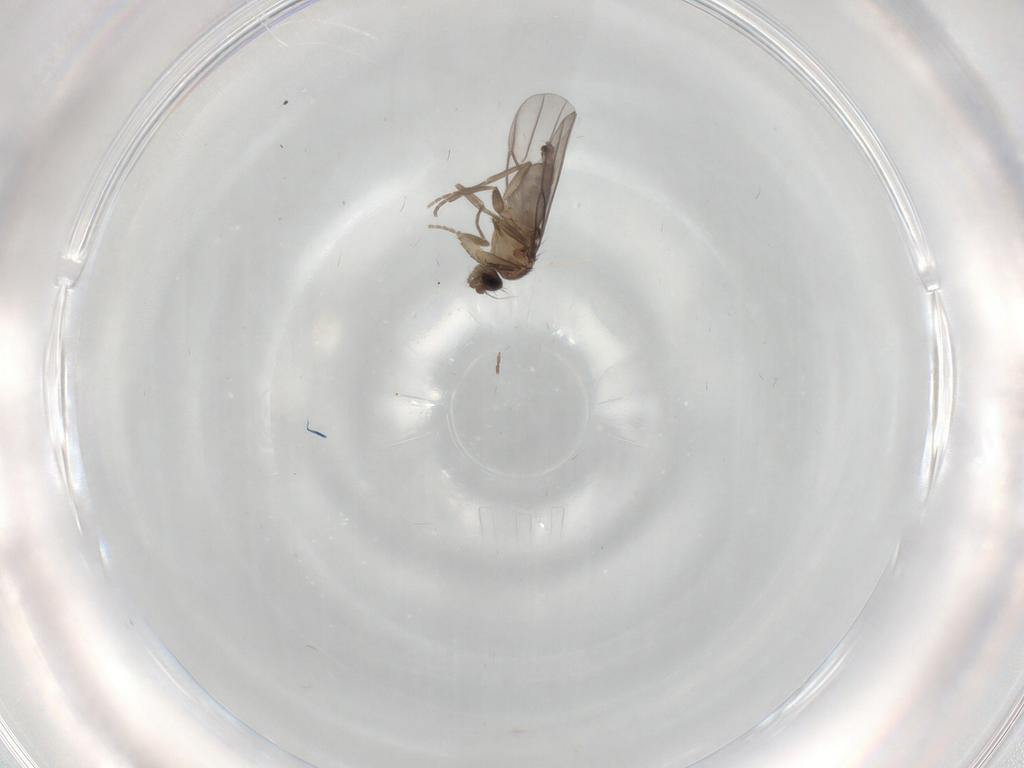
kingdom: Animalia
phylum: Arthropoda
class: Insecta
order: Diptera
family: Phoridae
